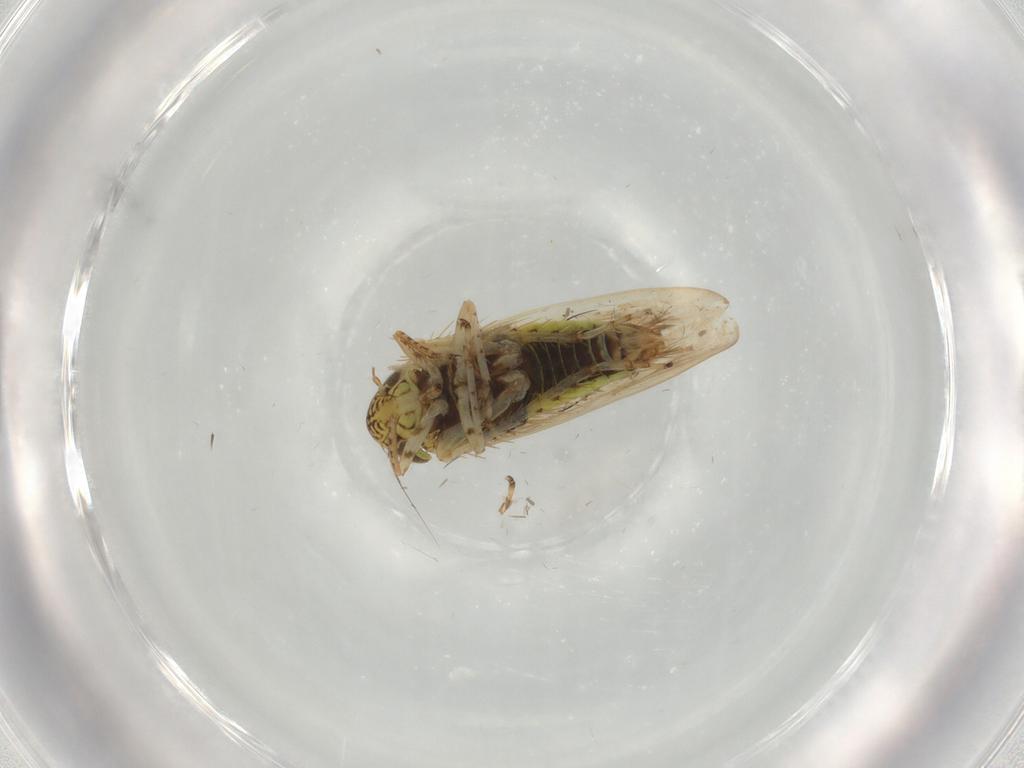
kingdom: Animalia
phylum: Arthropoda
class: Insecta
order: Hemiptera
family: Cicadellidae
